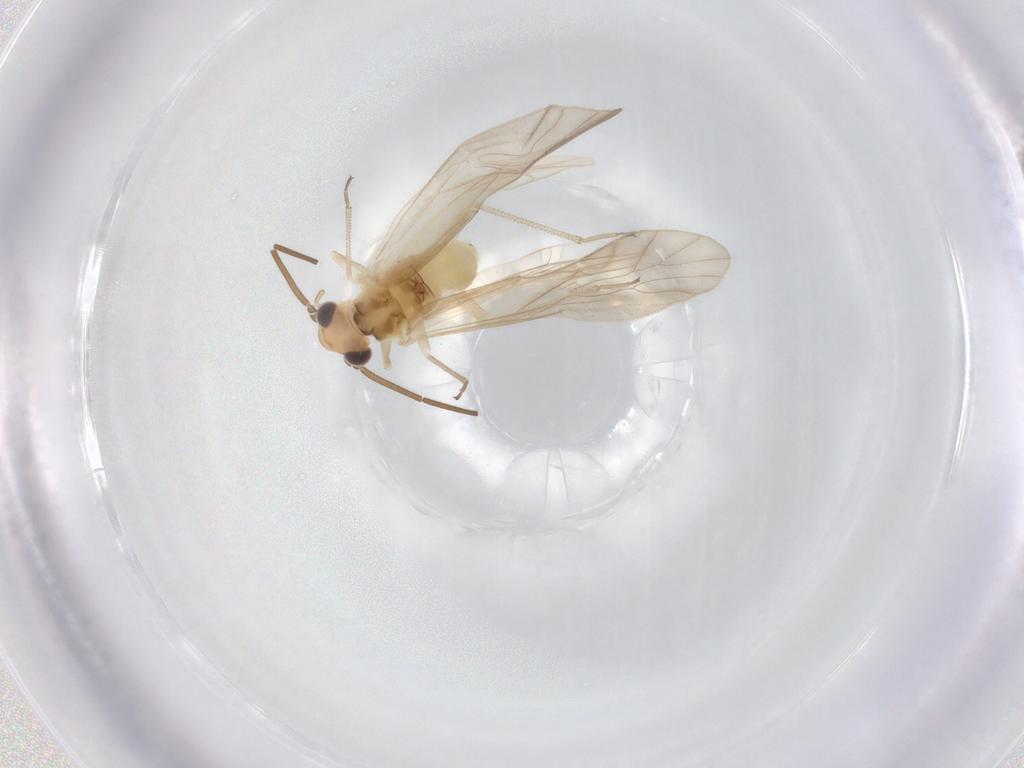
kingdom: Animalia
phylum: Arthropoda
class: Insecta
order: Psocodea
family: Caeciliusidae
